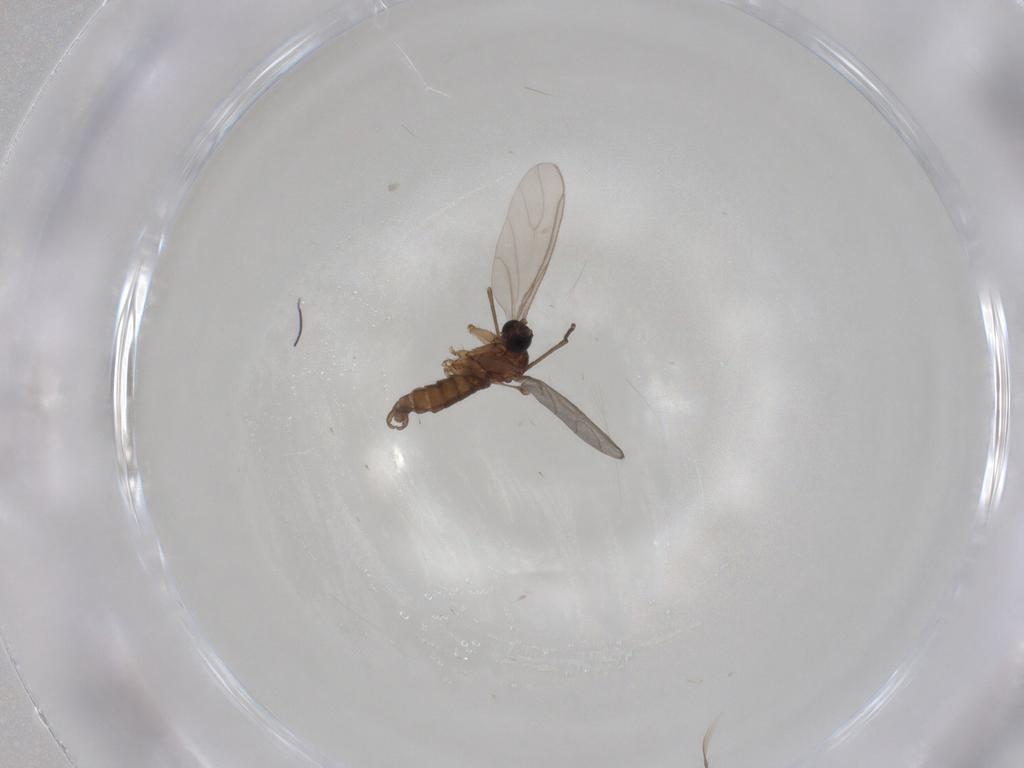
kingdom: Animalia
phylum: Arthropoda
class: Insecta
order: Diptera
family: Sciaridae
